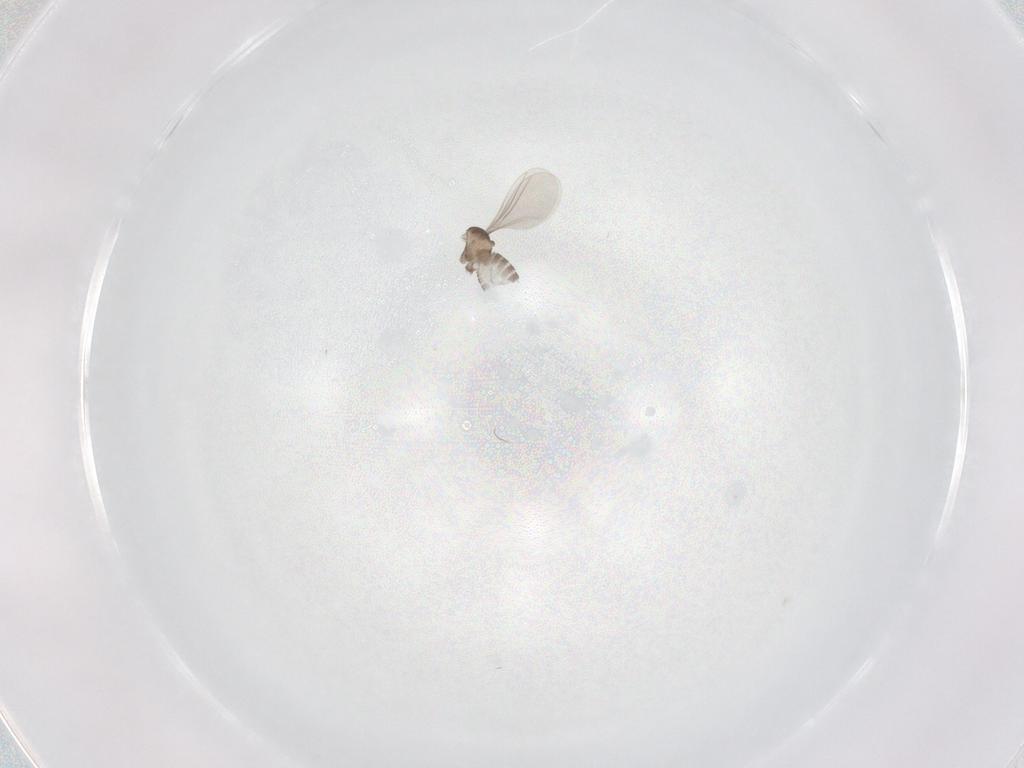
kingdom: Animalia
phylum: Arthropoda
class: Insecta
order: Diptera
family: Cecidomyiidae
